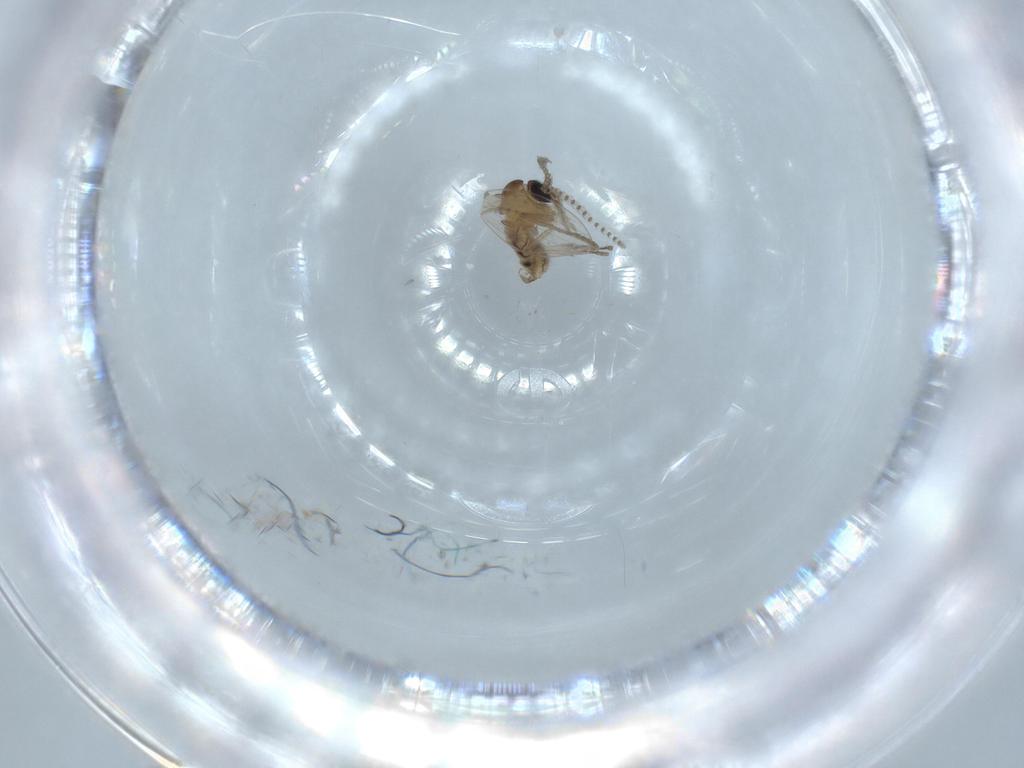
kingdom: Animalia
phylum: Arthropoda
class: Insecta
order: Diptera
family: Psychodidae
